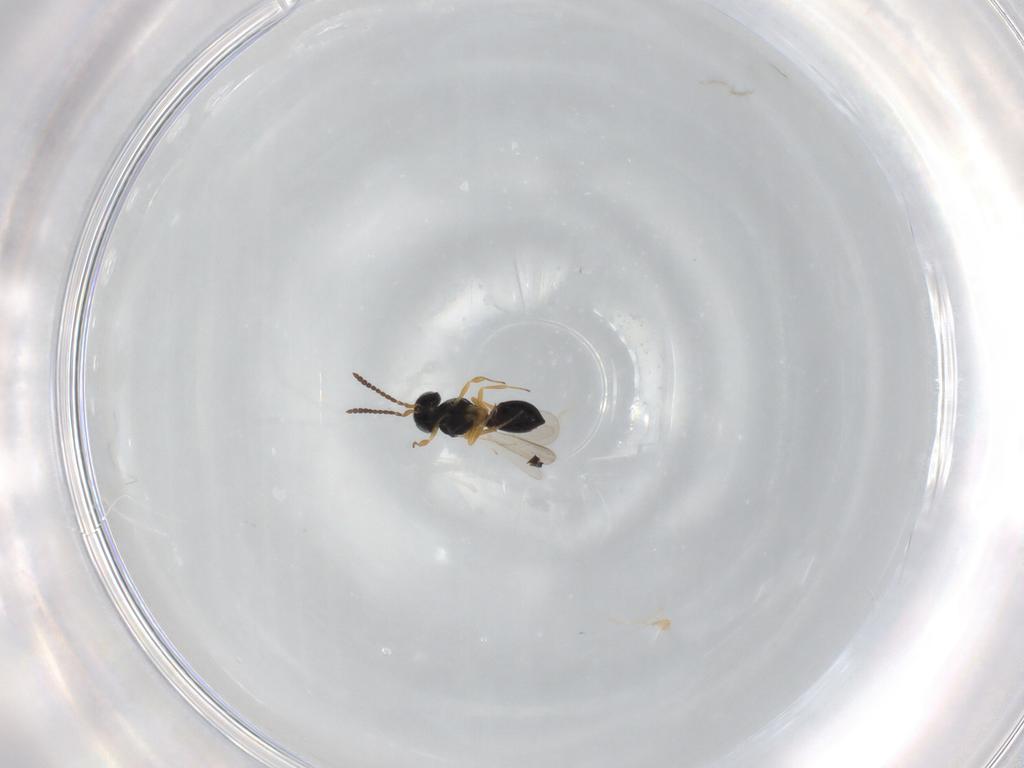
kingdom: Animalia
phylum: Arthropoda
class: Insecta
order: Hymenoptera
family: Scelionidae
